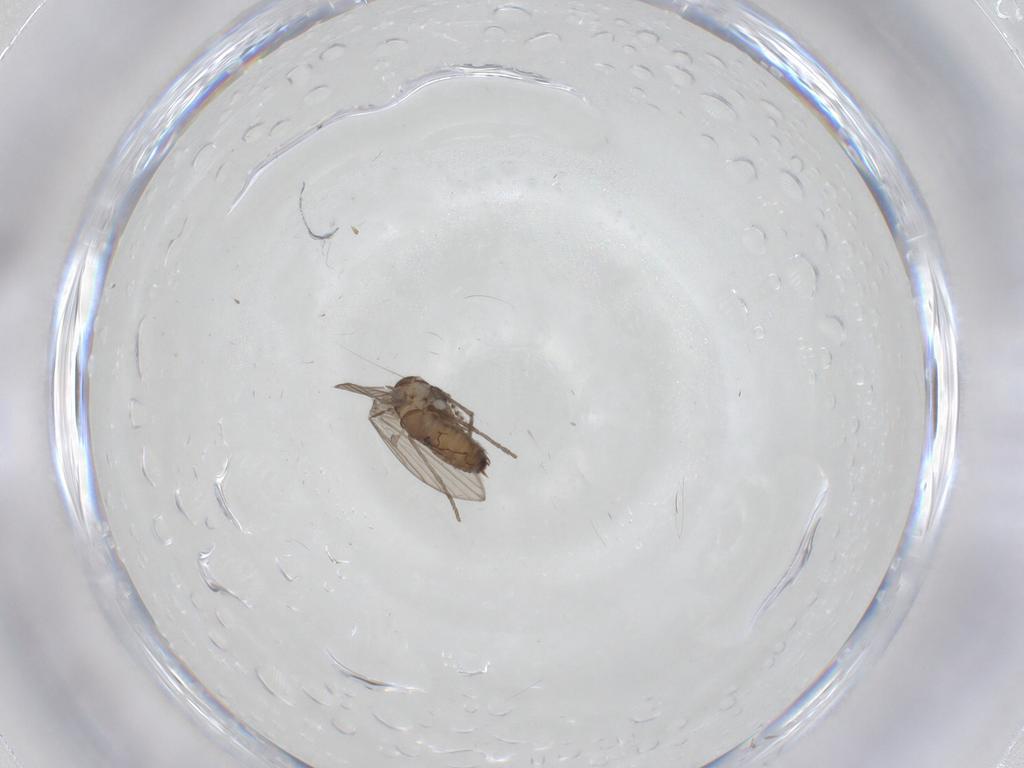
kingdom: Animalia
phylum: Arthropoda
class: Insecta
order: Diptera
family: Psychodidae
